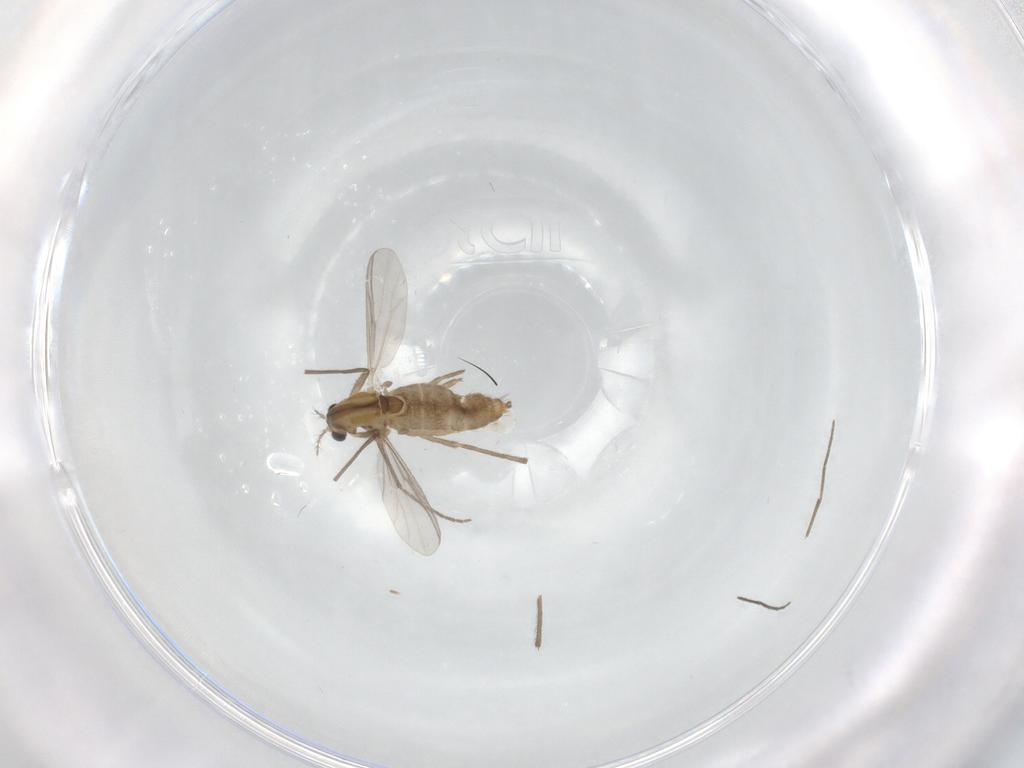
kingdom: Animalia
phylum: Arthropoda
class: Insecta
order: Diptera
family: Chironomidae
